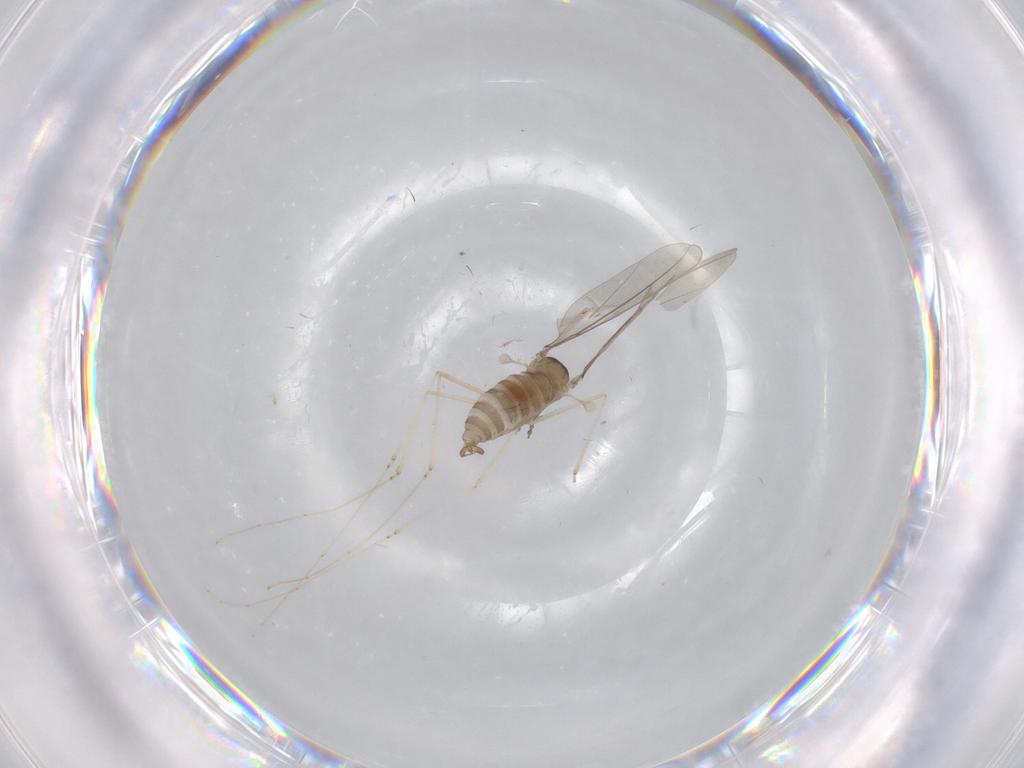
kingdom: Animalia
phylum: Arthropoda
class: Insecta
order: Diptera
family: Cecidomyiidae
